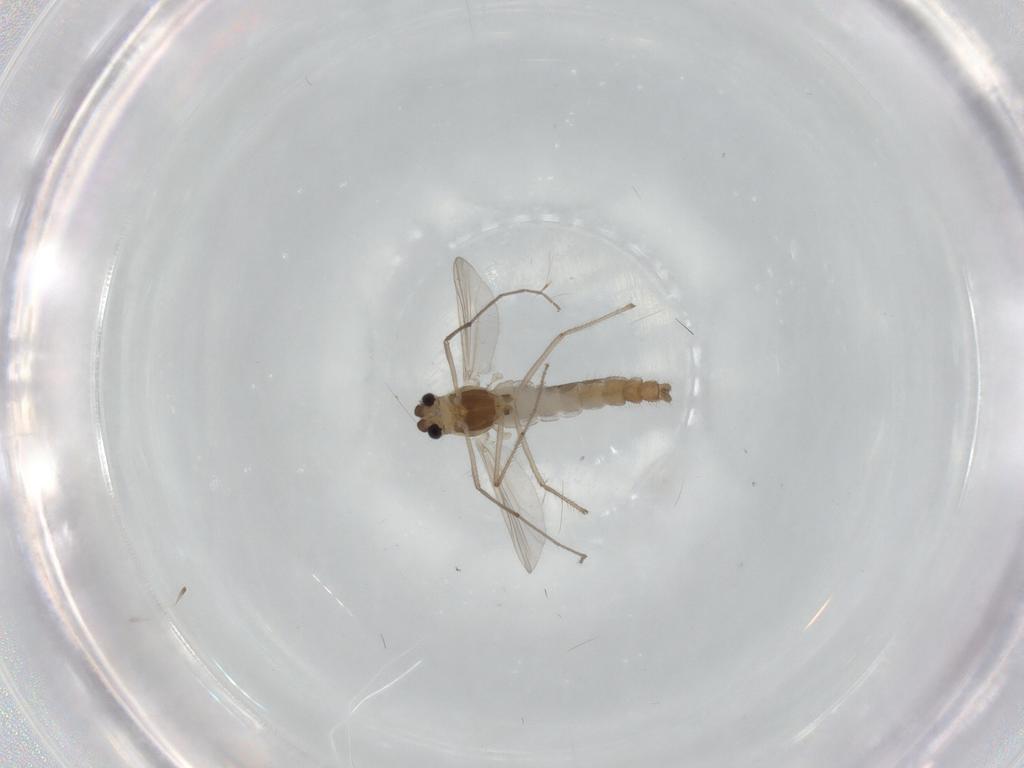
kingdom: Animalia
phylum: Arthropoda
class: Insecta
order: Diptera
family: Chironomidae
